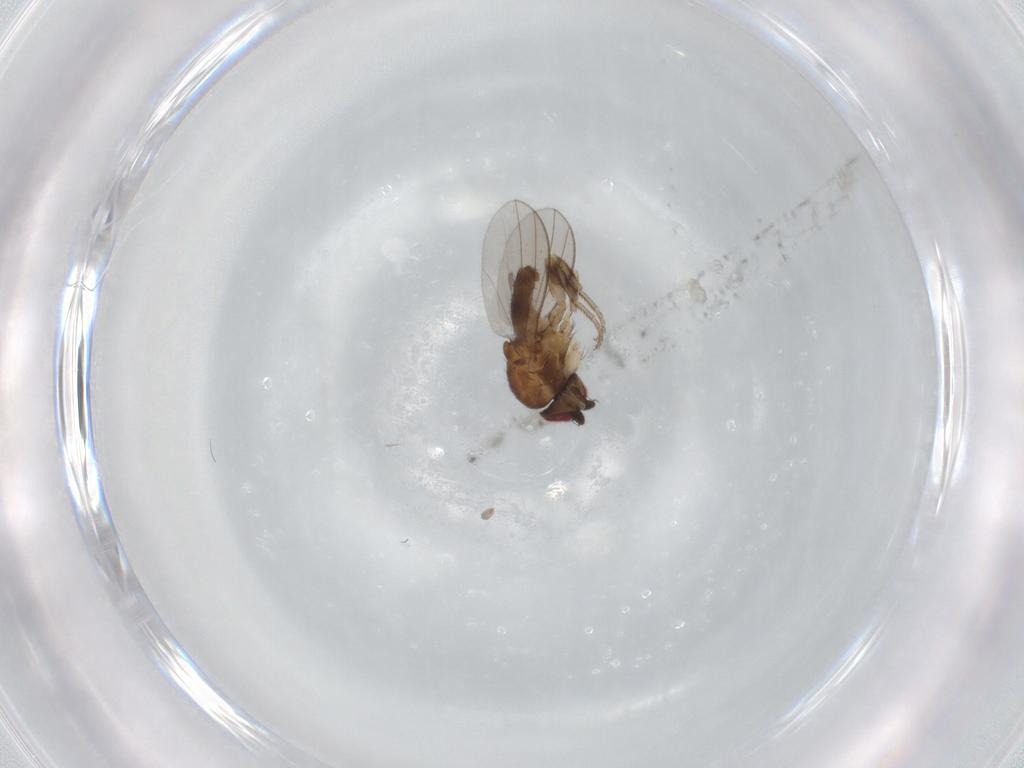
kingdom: Animalia
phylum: Arthropoda
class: Insecta
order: Diptera
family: Milichiidae
